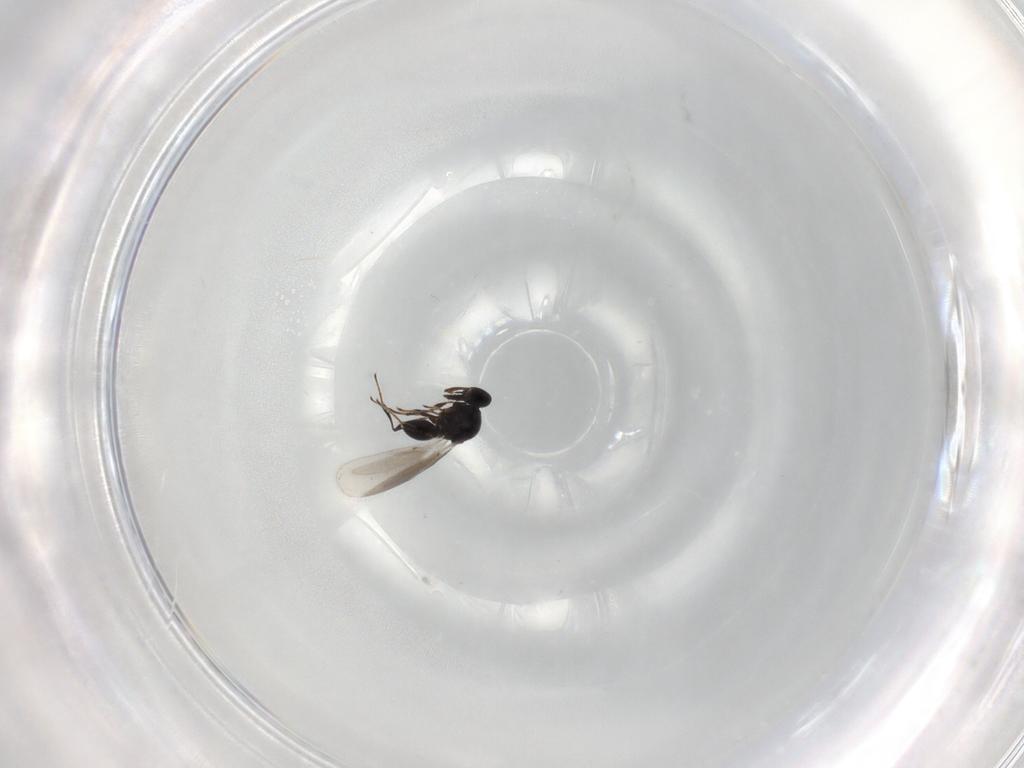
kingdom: Animalia
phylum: Arthropoda
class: Insecta
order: Hymenoptera
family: Platygastridae
